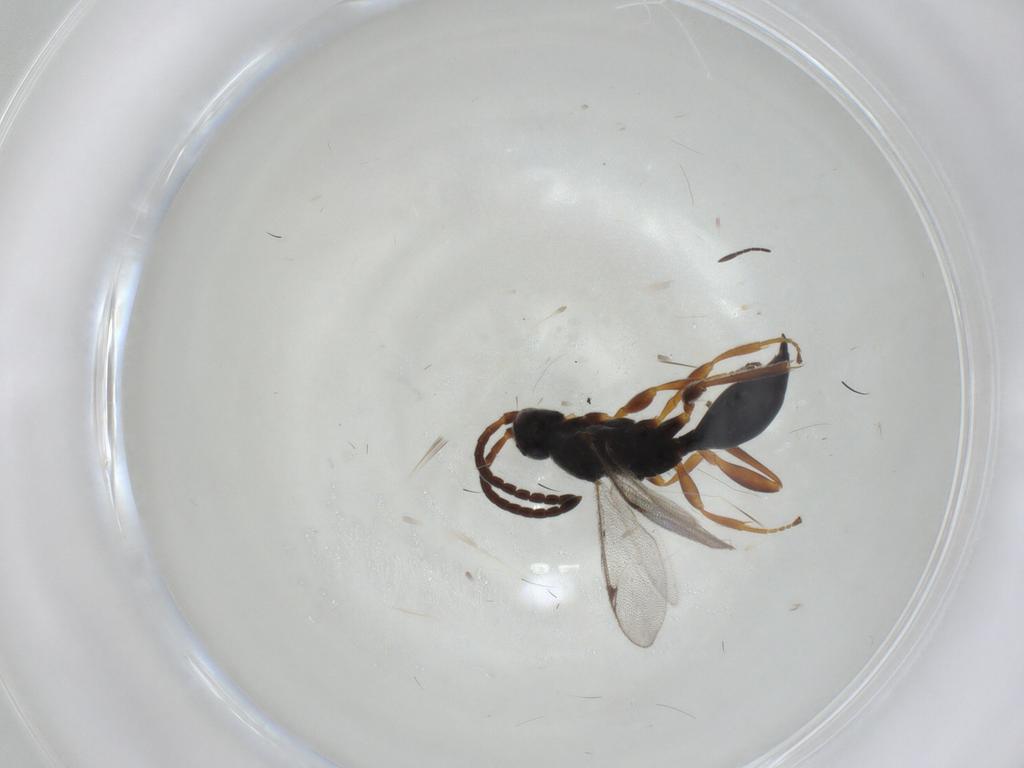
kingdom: Animalia
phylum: Arthropoda
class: Insecta
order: Hymenoptera
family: Proctotrupidae
